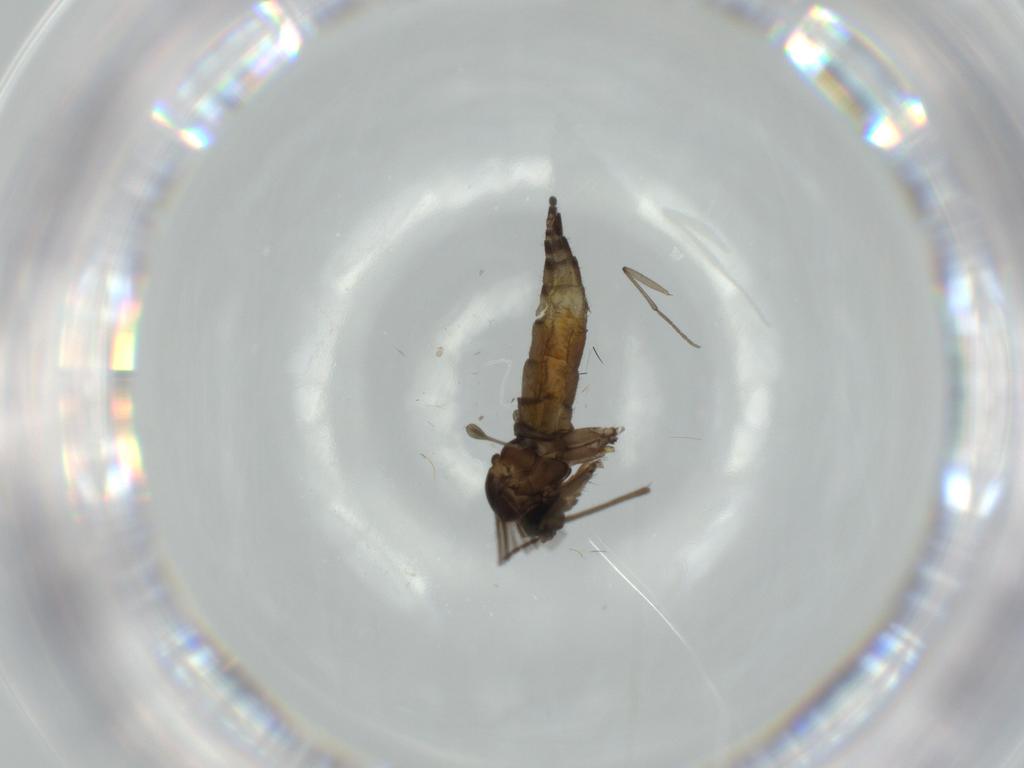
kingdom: Animalia
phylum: Arthropoda
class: Insecta
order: Diptera
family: Sciaridae
